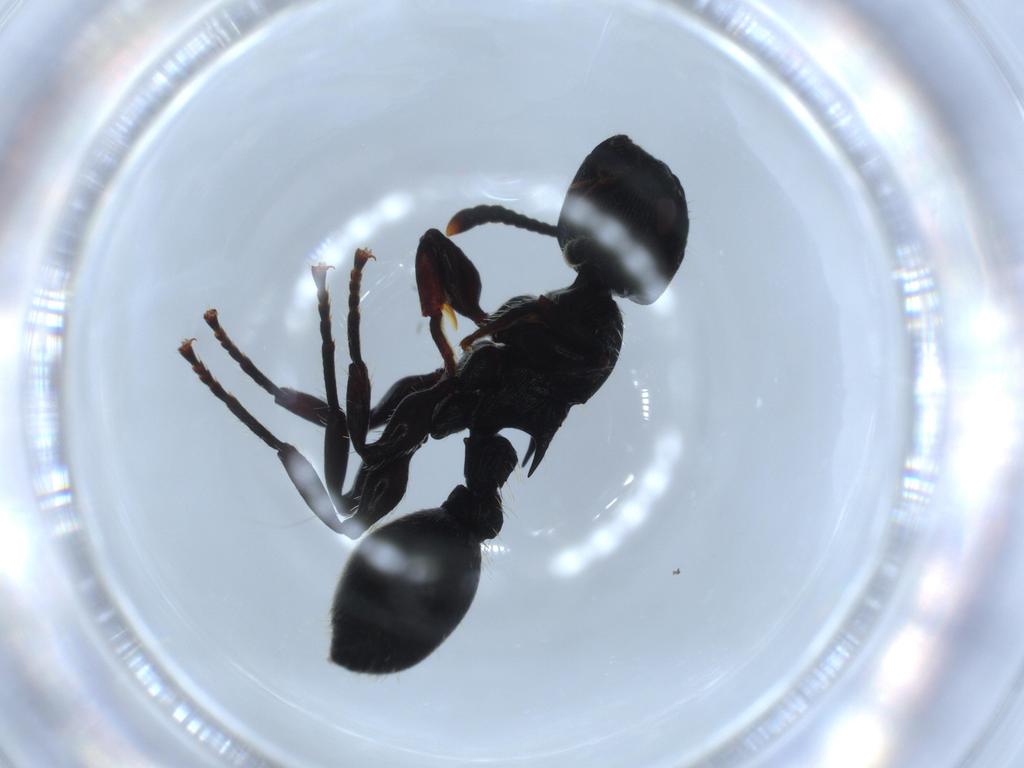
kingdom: Animalia
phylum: Arthropoda
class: Insecta
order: Hymenoptera
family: Formicidae
